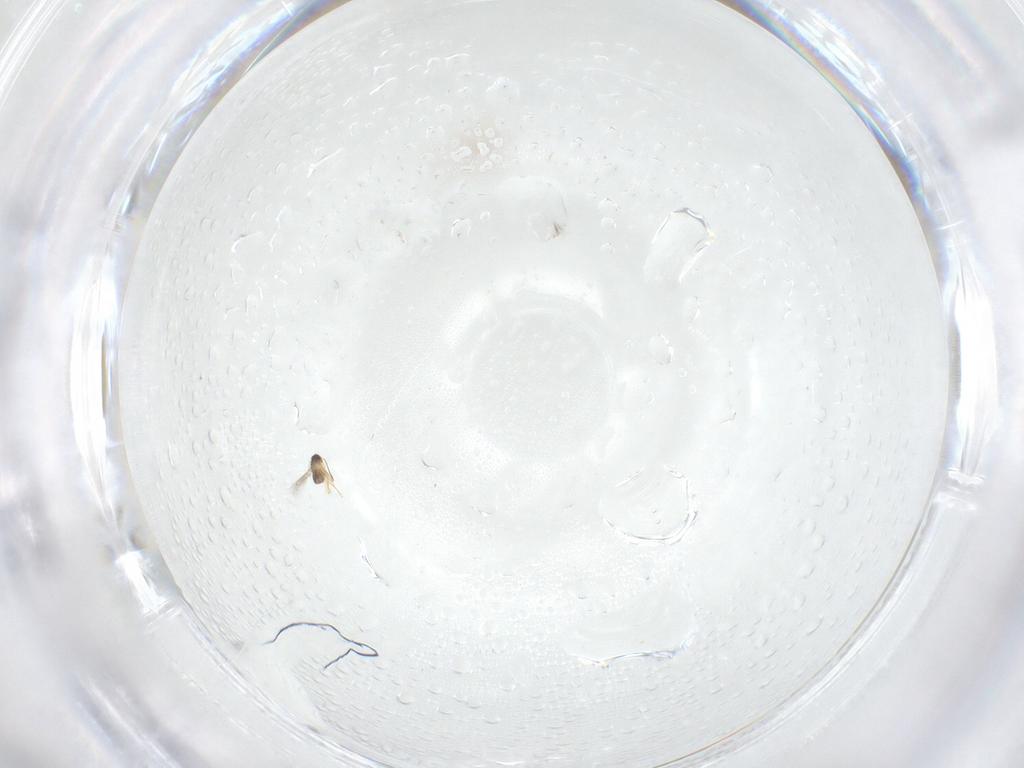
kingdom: Animalia
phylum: Arthropoda
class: Insecta
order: Hymenoptera
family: Mymaridae
